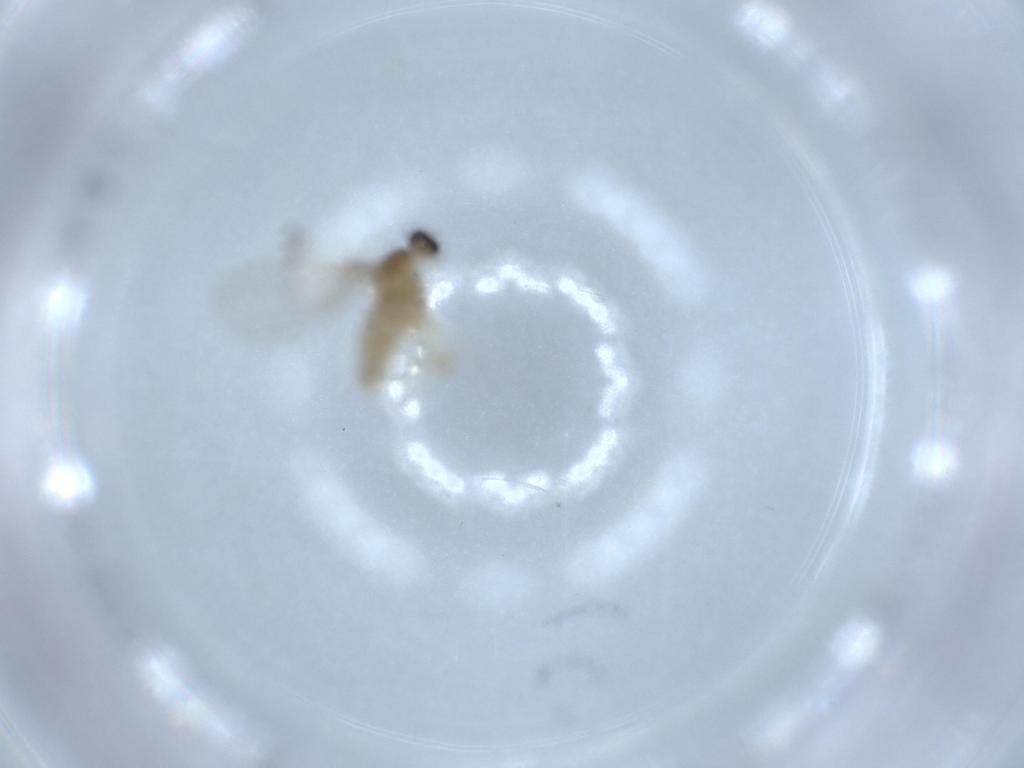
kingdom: Animalia
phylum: Arthropoda
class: Insecta
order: Diptera
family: Cecidomyiidae
